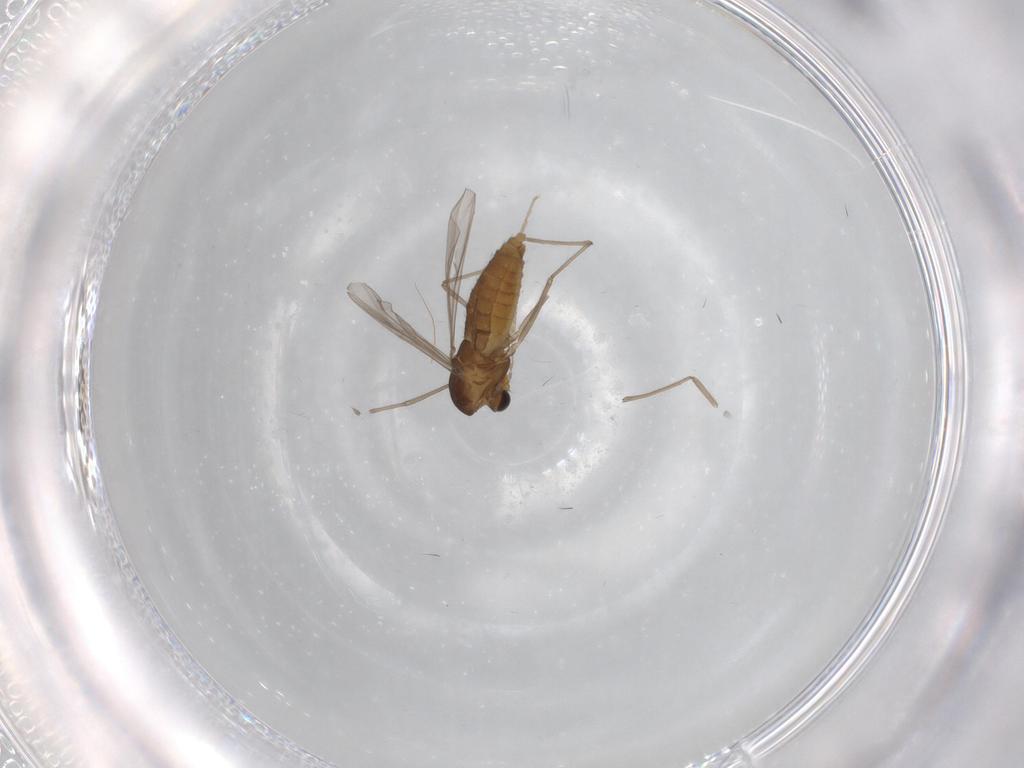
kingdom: Animalia
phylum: Arthropoda
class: Insecta
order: Diptera
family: Chironomidae
